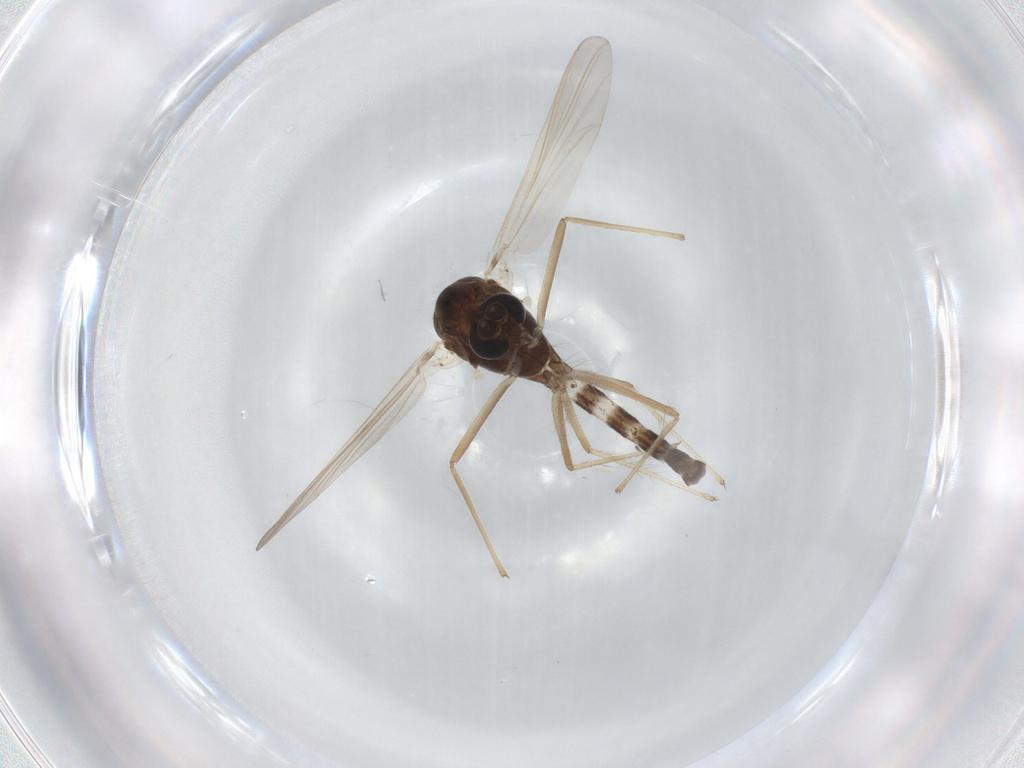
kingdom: Animalia
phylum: Arthropoda
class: Insecta
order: Diptera
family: Chironomidae
